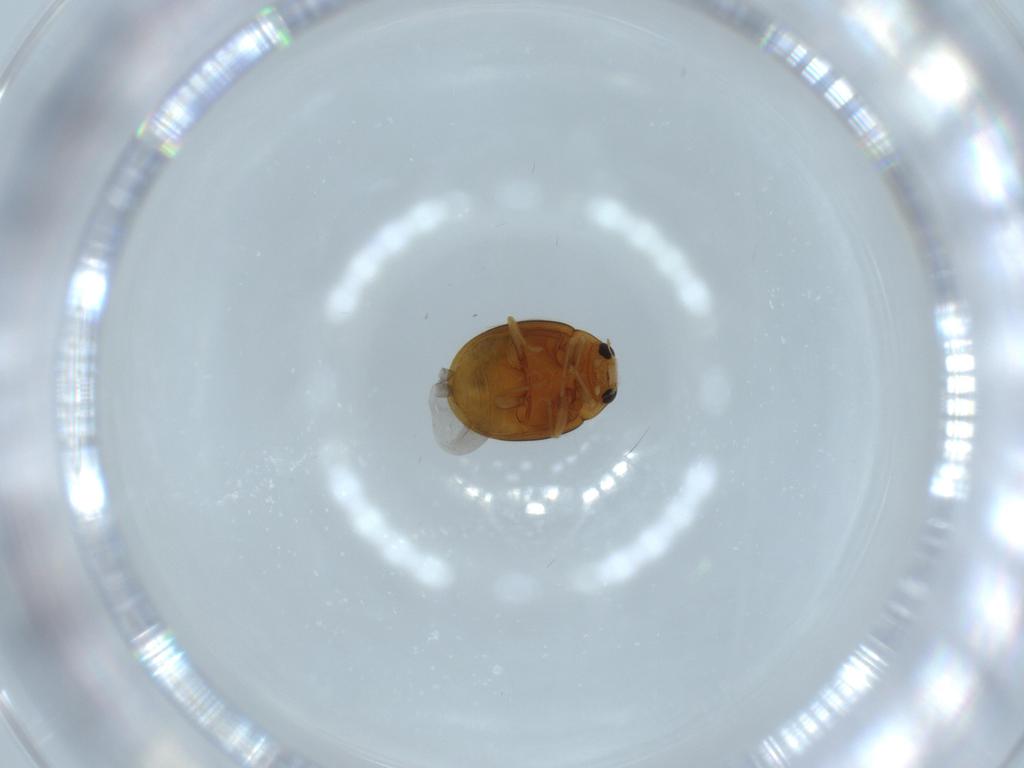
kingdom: Animalia
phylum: Arthropoda
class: Insecta
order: Coleoptera
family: Coccinellidae
